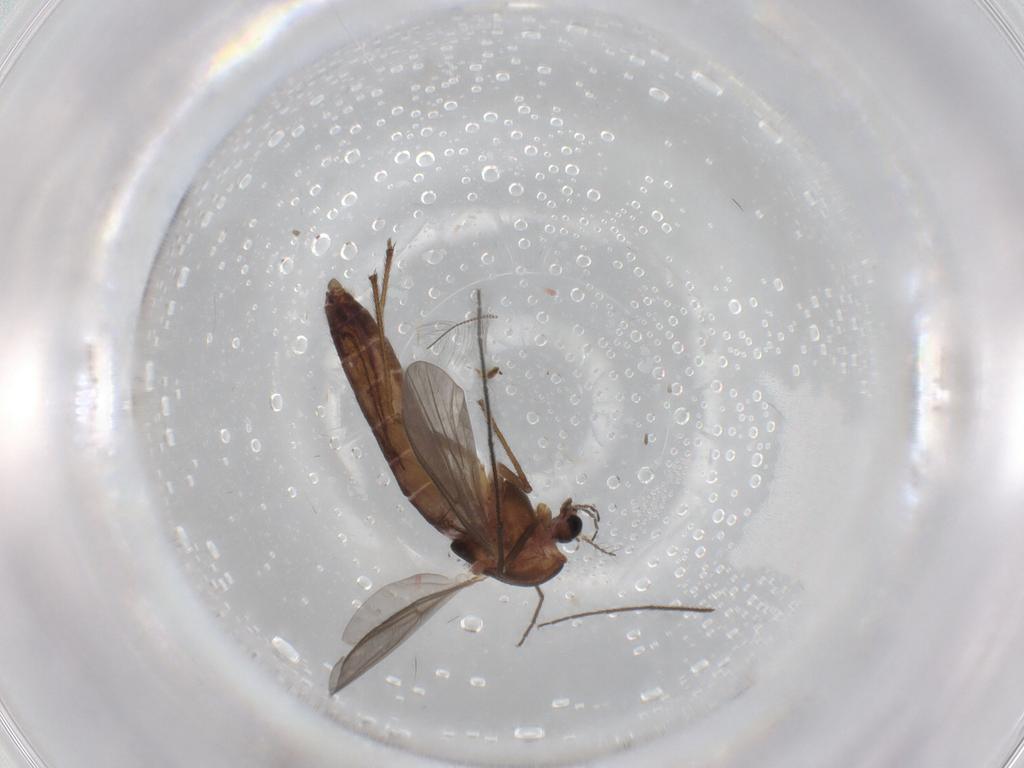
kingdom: Animalia
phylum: Arthropoda
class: Insecta
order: Diptera
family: Chironomidae
